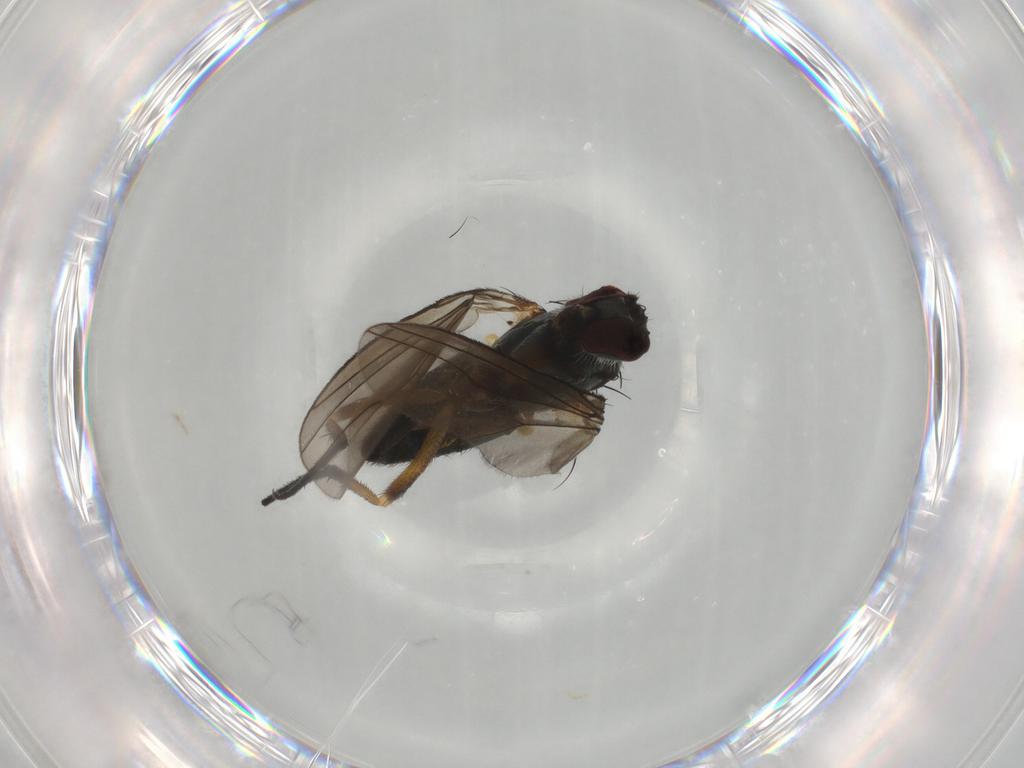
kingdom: Animalia
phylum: Arthropoda
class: Insecta
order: Diptera
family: Dolichopodidae
